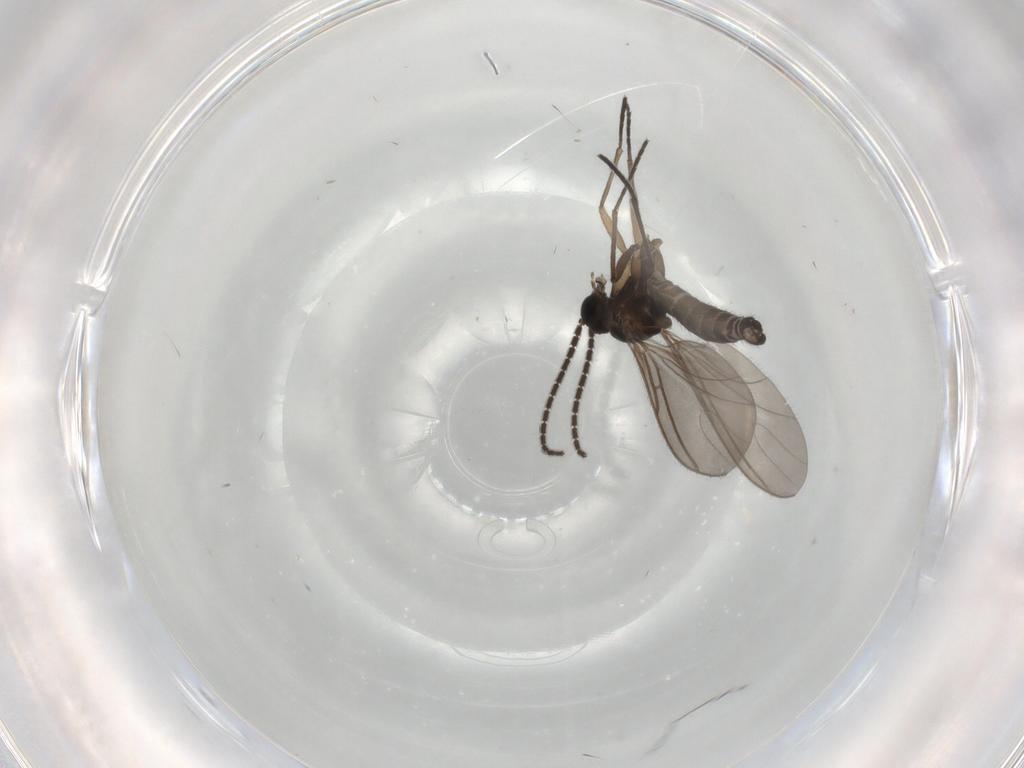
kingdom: Animalia
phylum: Arthropoda
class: Insecta
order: Diptera
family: Sciaridae
